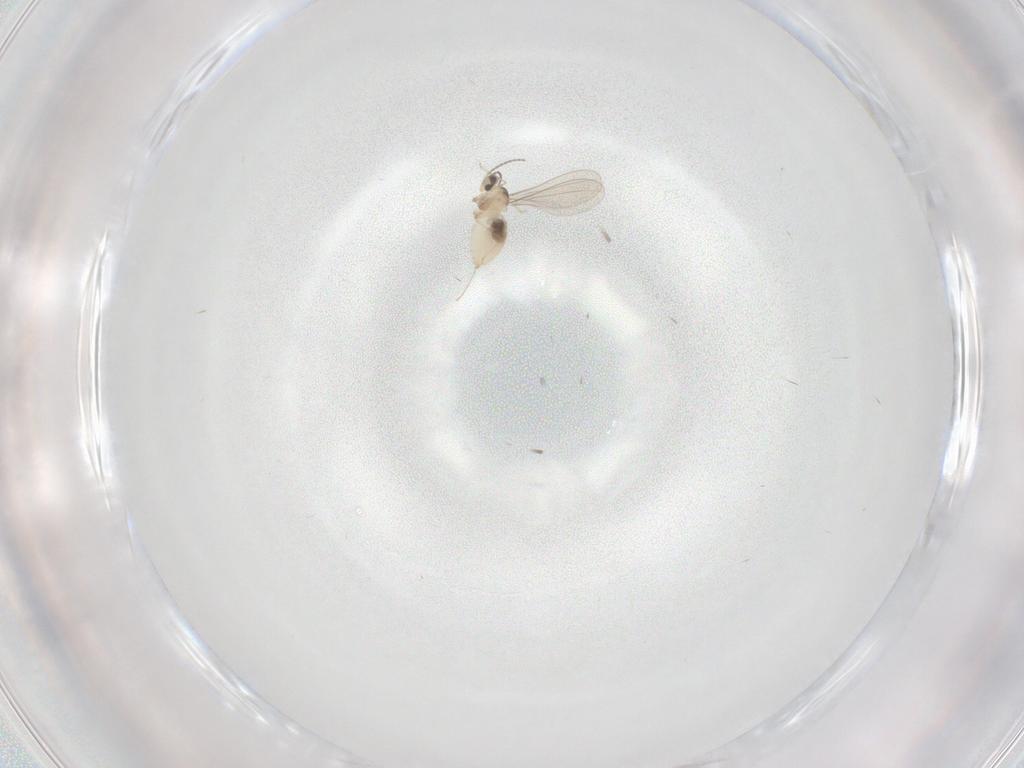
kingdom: Animalia
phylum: Arthropoda
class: Insecta
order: Diptera
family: Cecidomyiidae
